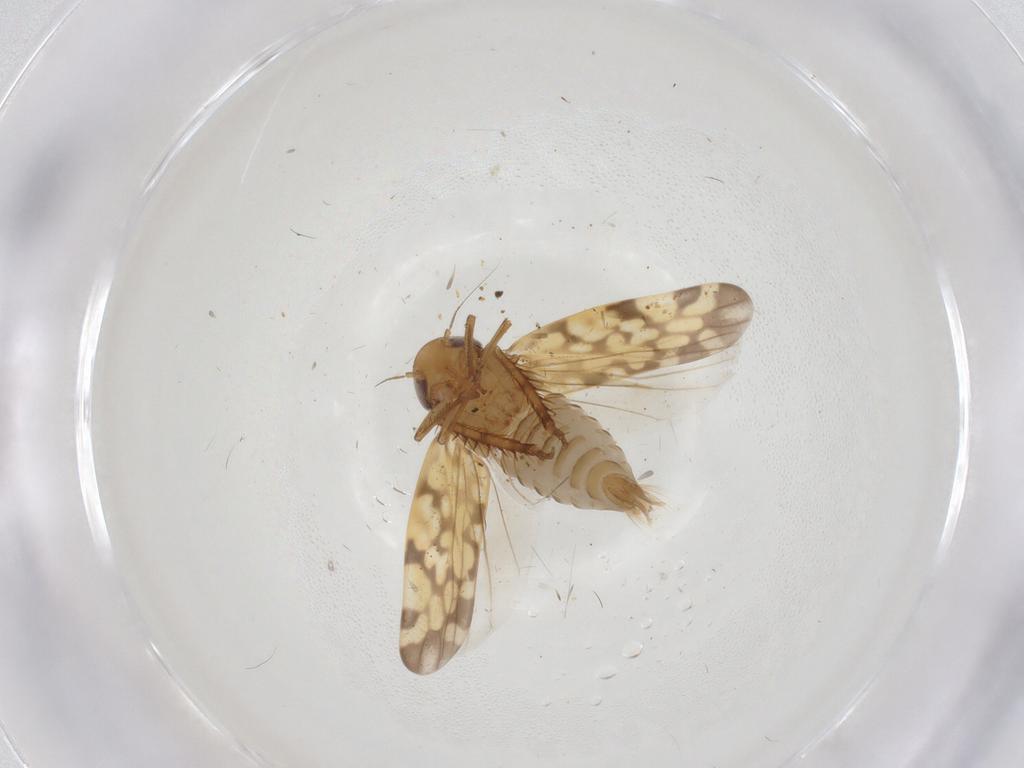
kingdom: Animalia
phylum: Arthropoda
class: Insecta
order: Hemiptera
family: Cicadellidae
